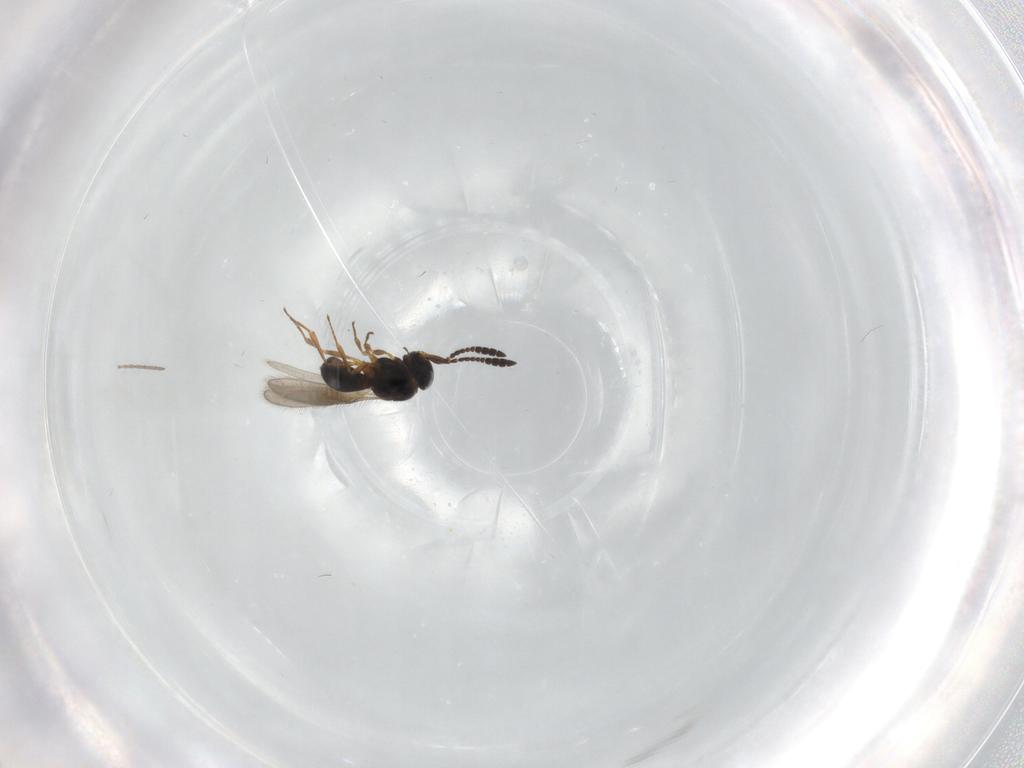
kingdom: Animalia
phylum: Arthropoda
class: Insecta
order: Hymenoptera
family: Scelionidae
